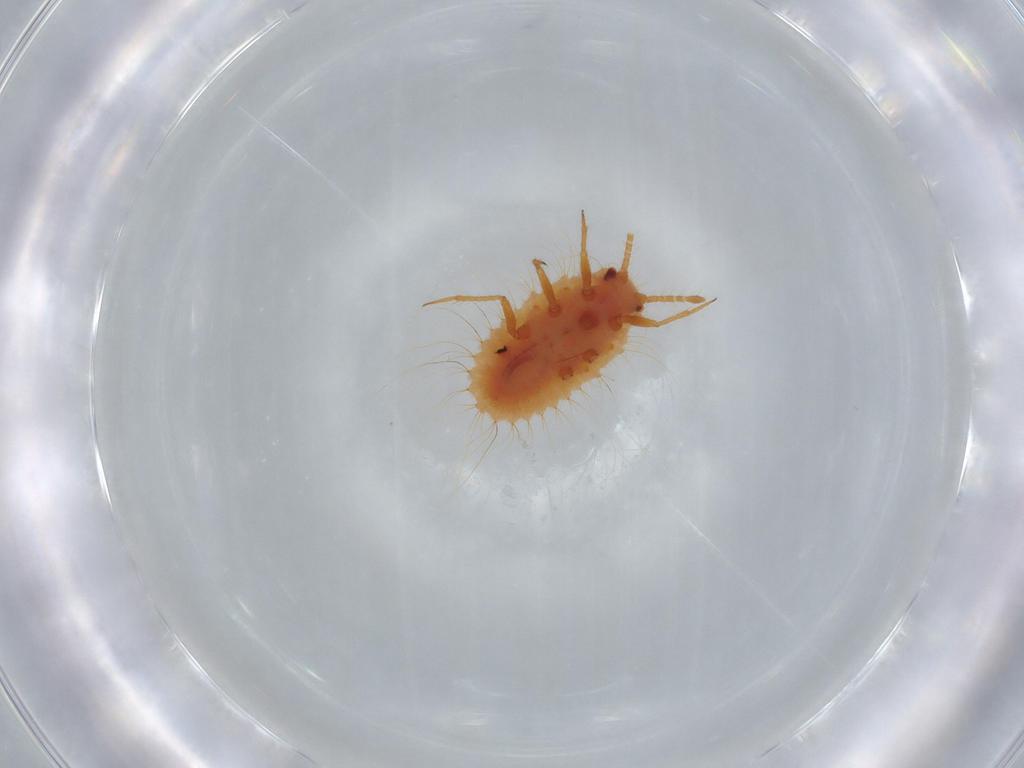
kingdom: Animalia
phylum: Arthropoda
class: Insecta
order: Hemiptera
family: Coccoidea_incertae_sedis
